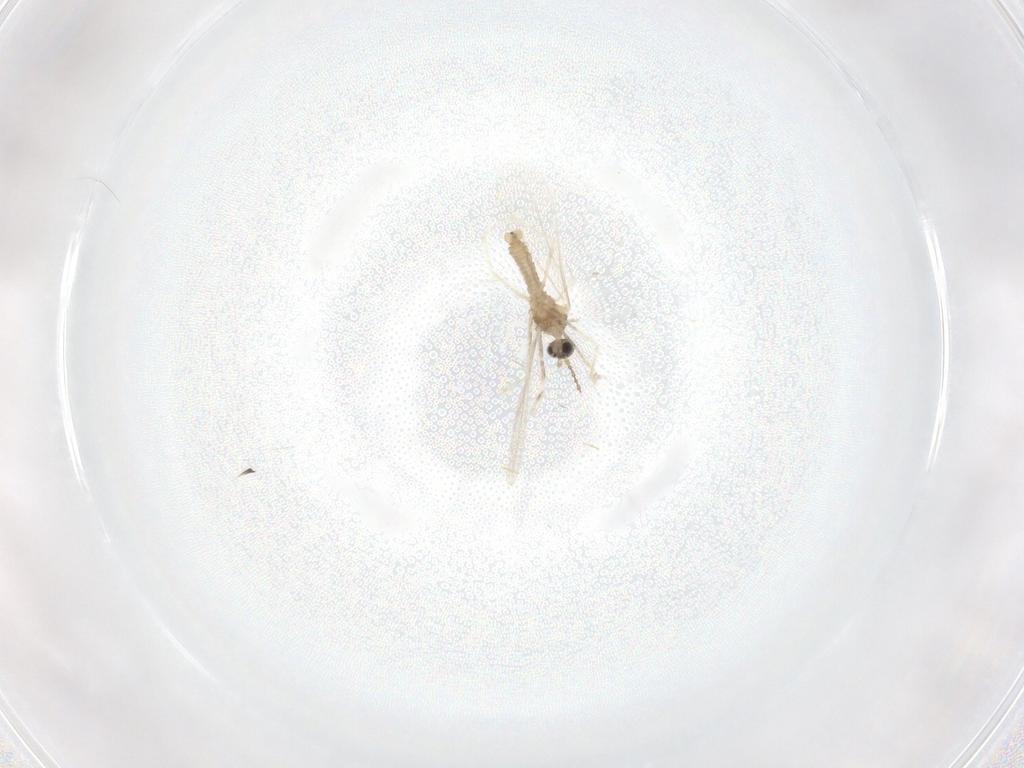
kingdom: Animalia
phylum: Arthropoda
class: Insecta
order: Diptera
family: Cecidomyiidae
